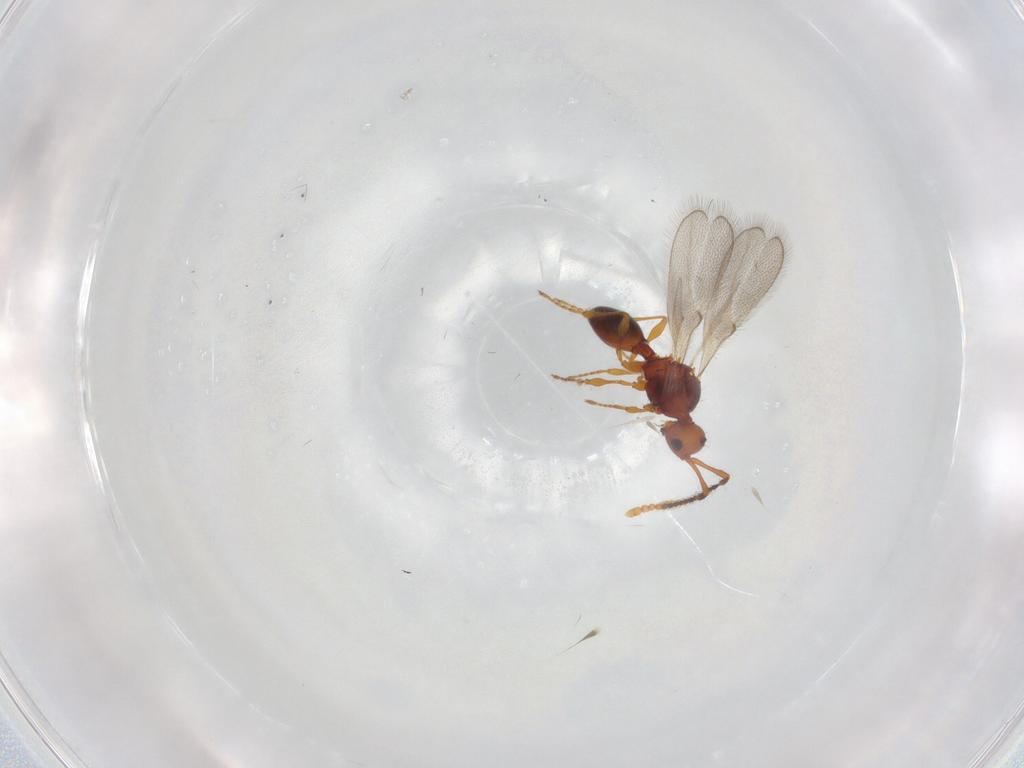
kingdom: Animalia
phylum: Arthropoda
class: Insecta
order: Hymenoptera
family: Diapriidae
